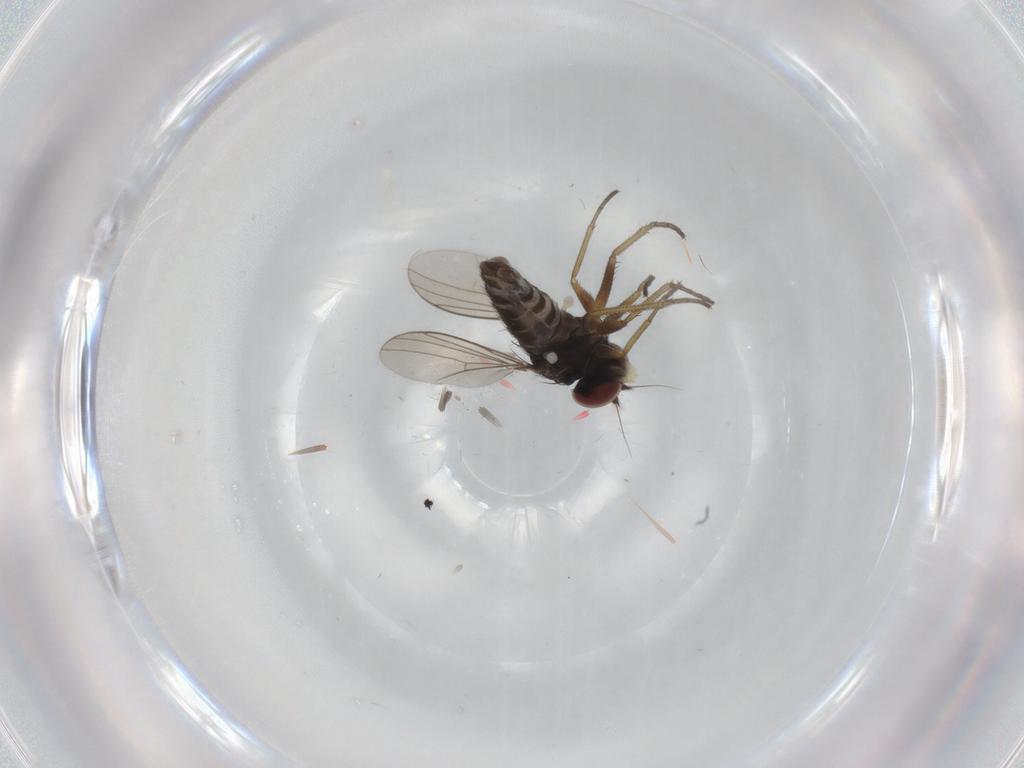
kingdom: Animalia
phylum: Arthropoda
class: Insecta
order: Diptera
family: Dolichopodidae
